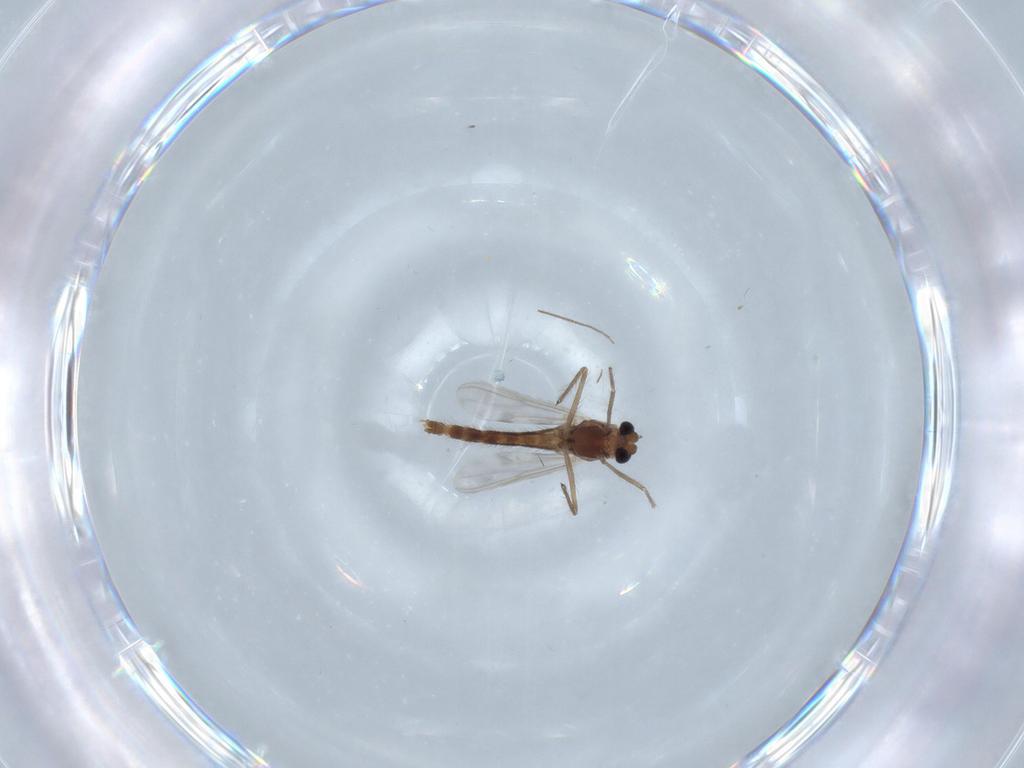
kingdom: Animalia
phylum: Arthropoda
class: Insecta
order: Diptera
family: Chironomidae
